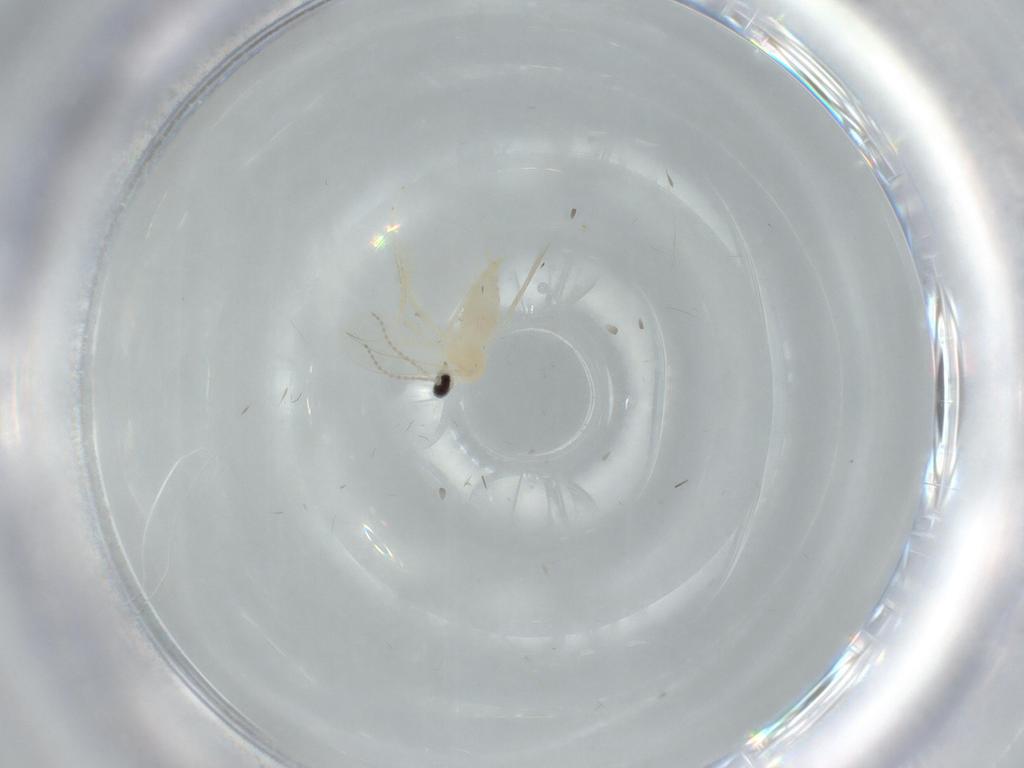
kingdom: Animalia
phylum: Arthropoda
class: Insecta
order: Diptera
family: Cecidomyiidae
